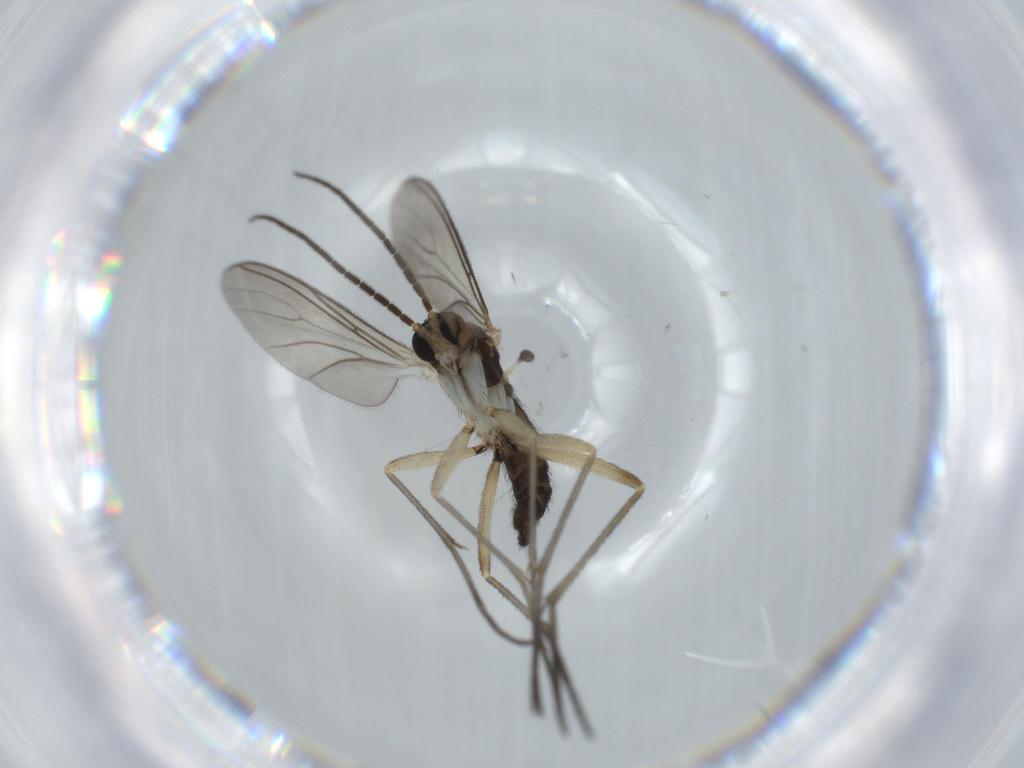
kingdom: Animalia
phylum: Arthropoda
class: Insecta
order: Diptera
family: Sciaridae
